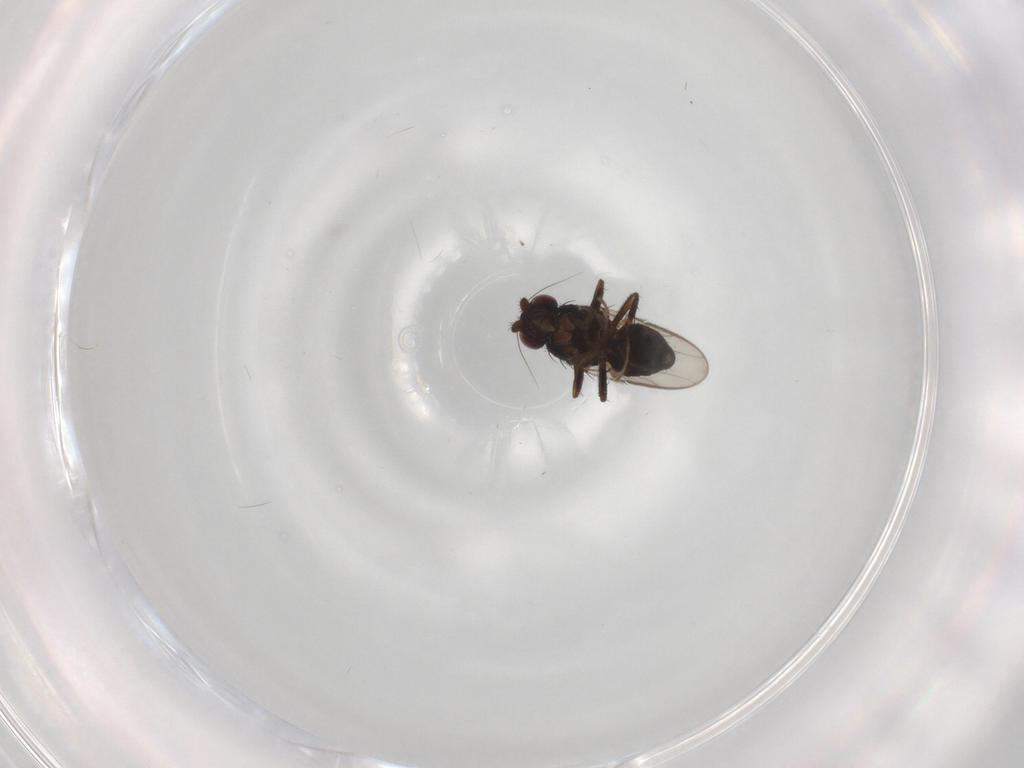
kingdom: Animalia
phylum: Arthropoda
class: Insecta
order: Diptera
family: Sphaeroceridae
